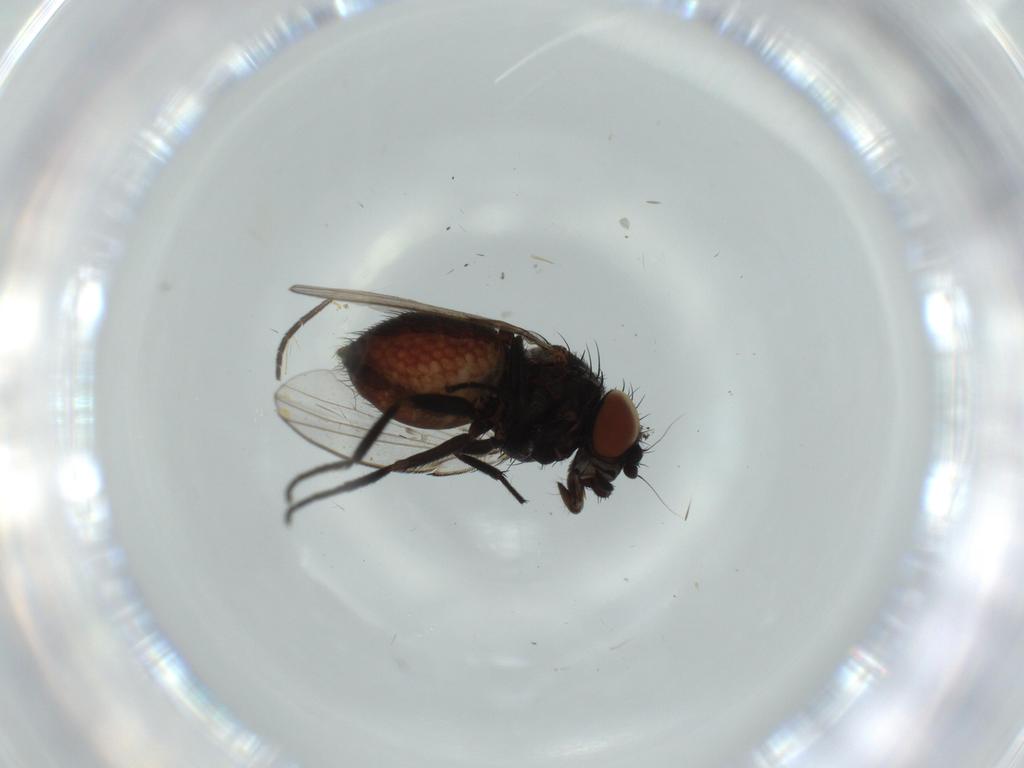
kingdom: Animalia
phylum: Arthropoda
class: Insecta
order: Diptera
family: Milichiidae
